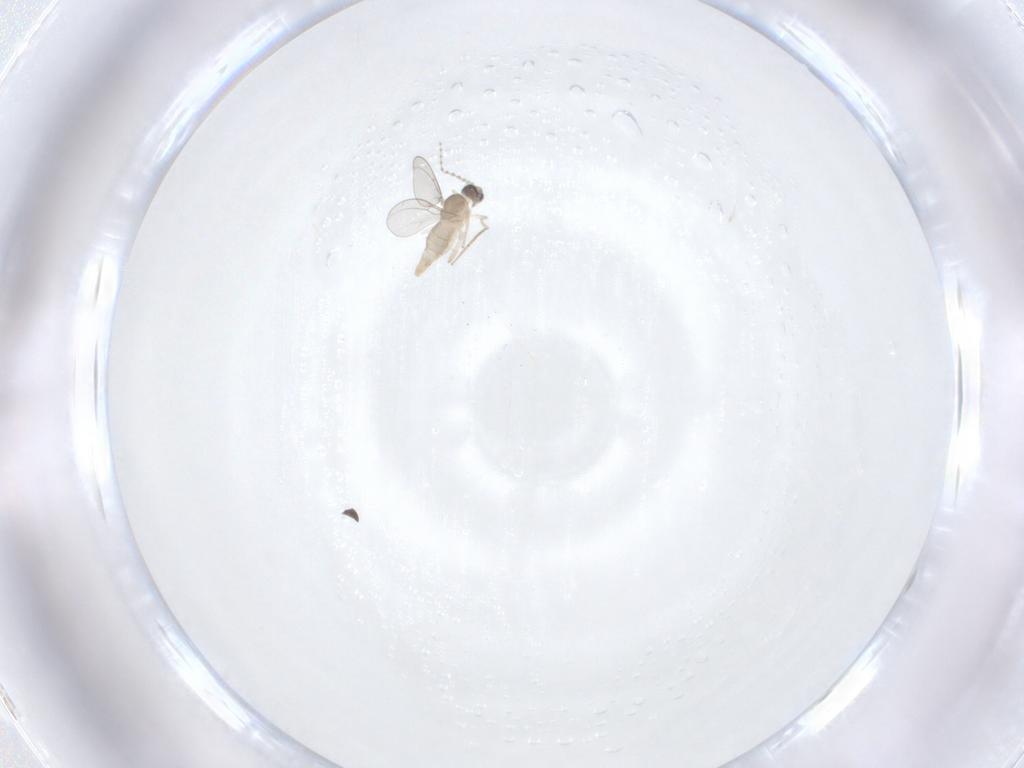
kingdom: Animalia
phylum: Arthropoda
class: Insecta
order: Diptera
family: Cecidomyiidae
